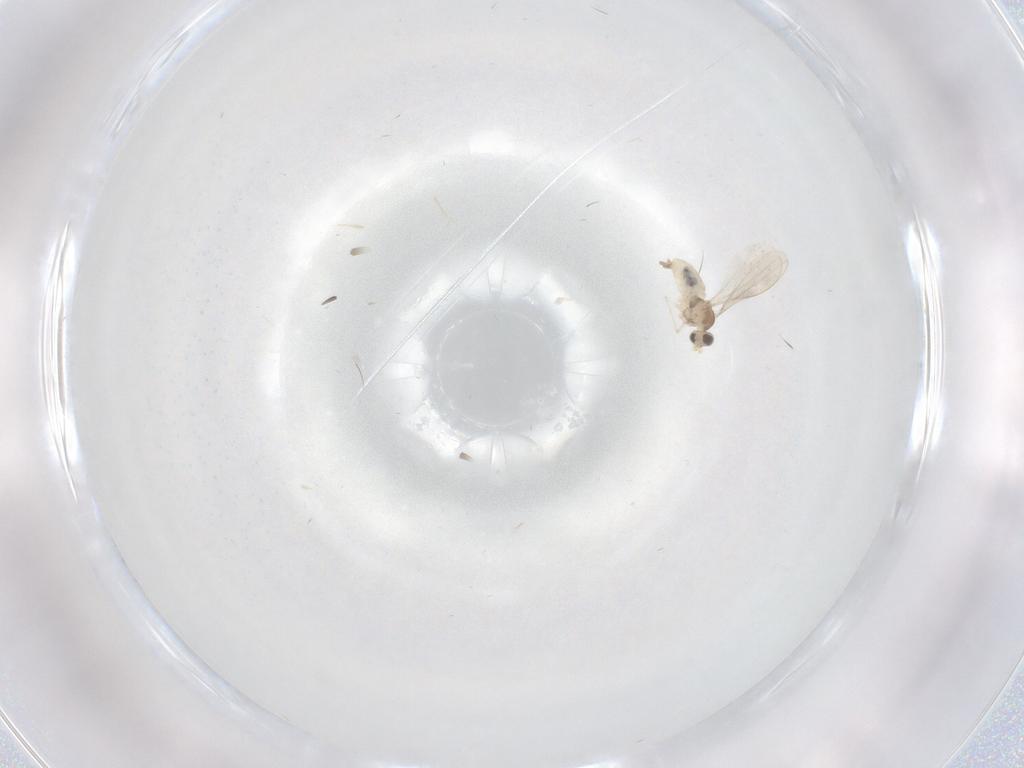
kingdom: Animalia
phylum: Arthropoda
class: Insecta
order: Diptera
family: Cecidomyiidae
